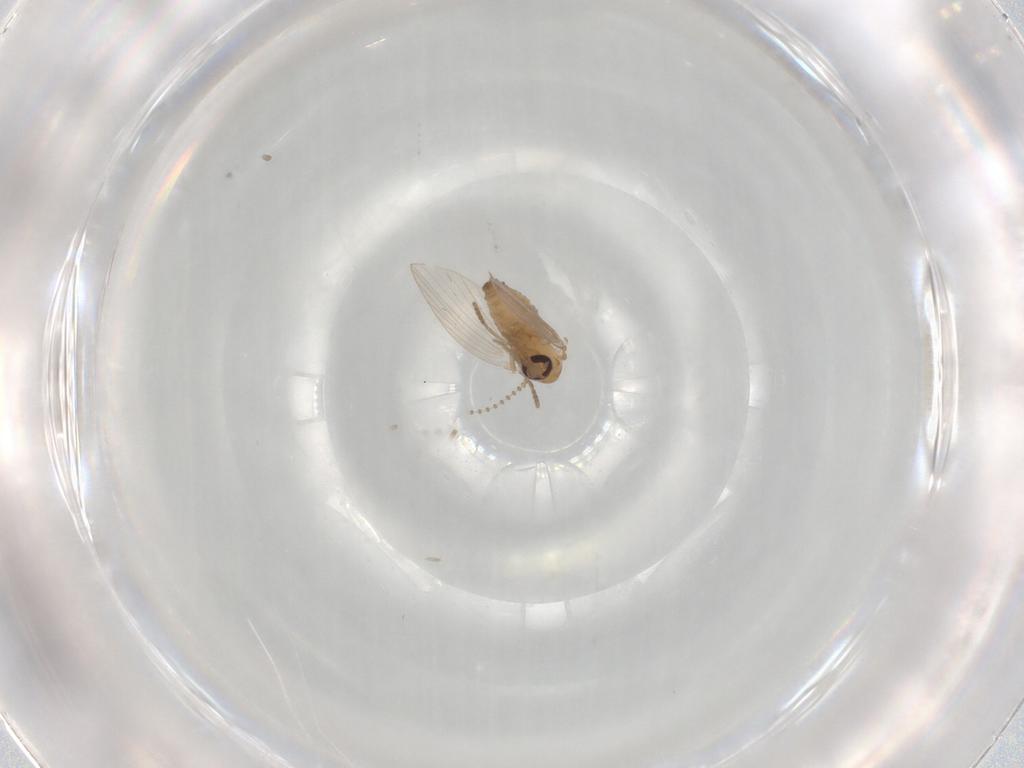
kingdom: Animalia
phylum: Arthropoda
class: Insecta
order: Diptera
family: Psychodidae
